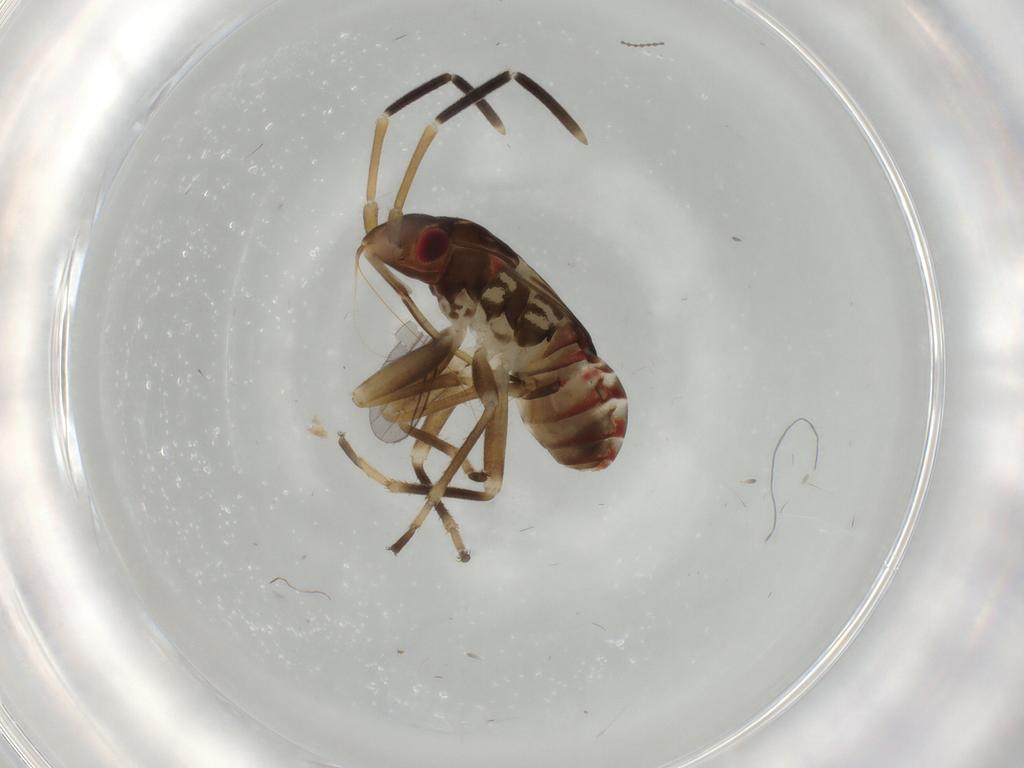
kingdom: Animalia
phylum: Arthropoda
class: Insecta
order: Hemiptera
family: Rhyparochromidae
